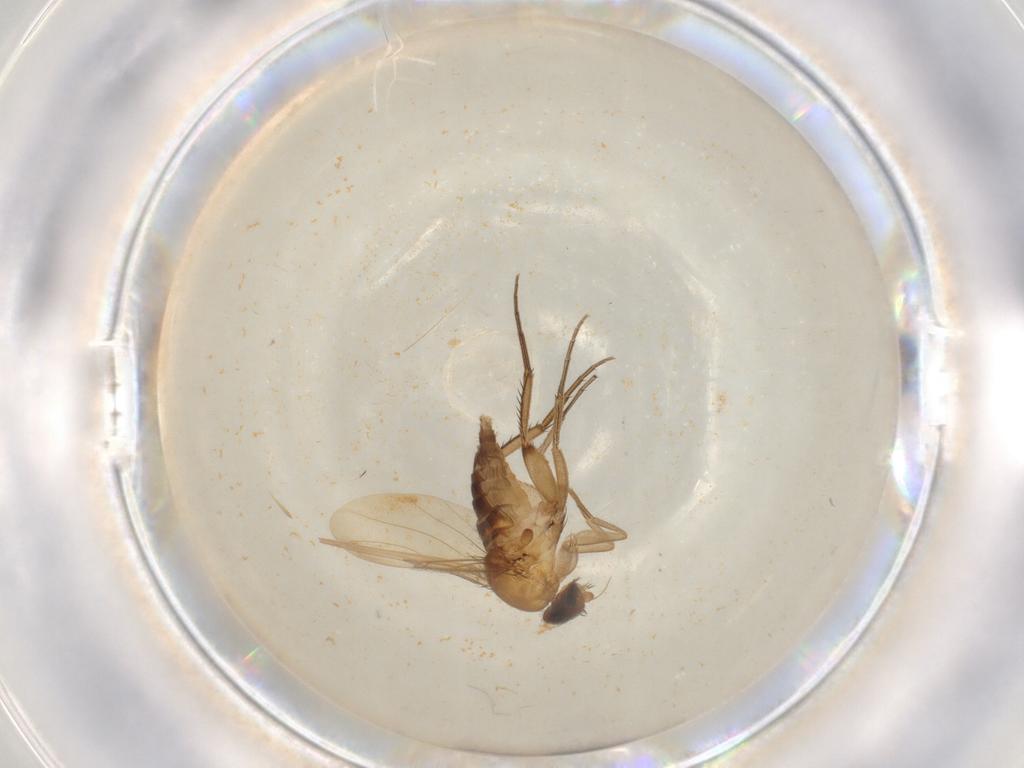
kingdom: Animalia
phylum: Arthropoda
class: Insecta
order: Diptera
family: Phoridae
